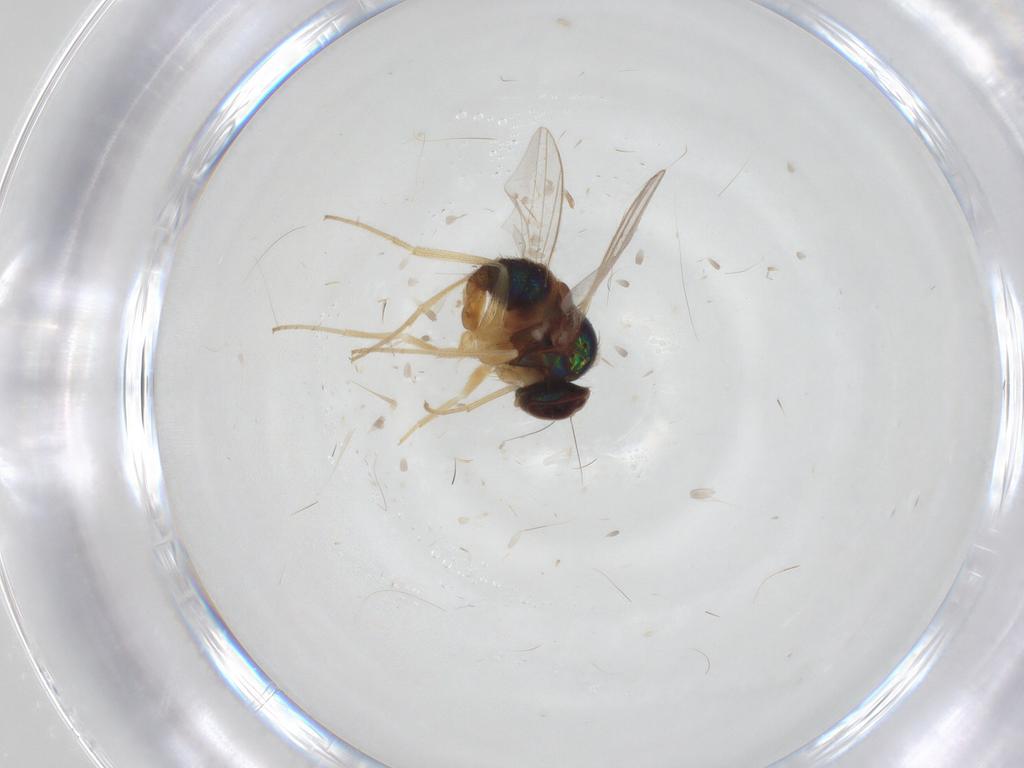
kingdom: Animalia
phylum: Arthropoda
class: Insecta
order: Diptera
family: Dolichopodidae
